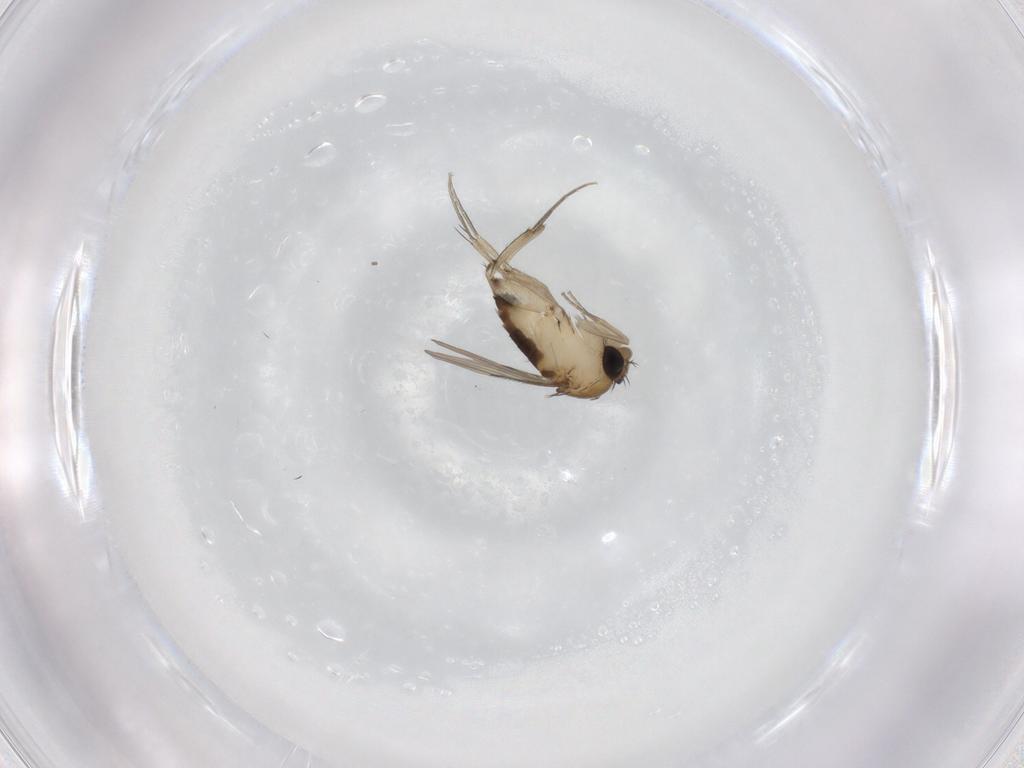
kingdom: Animalia
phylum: Arthropoda
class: Insecta
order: Diptera
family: Phoridae
